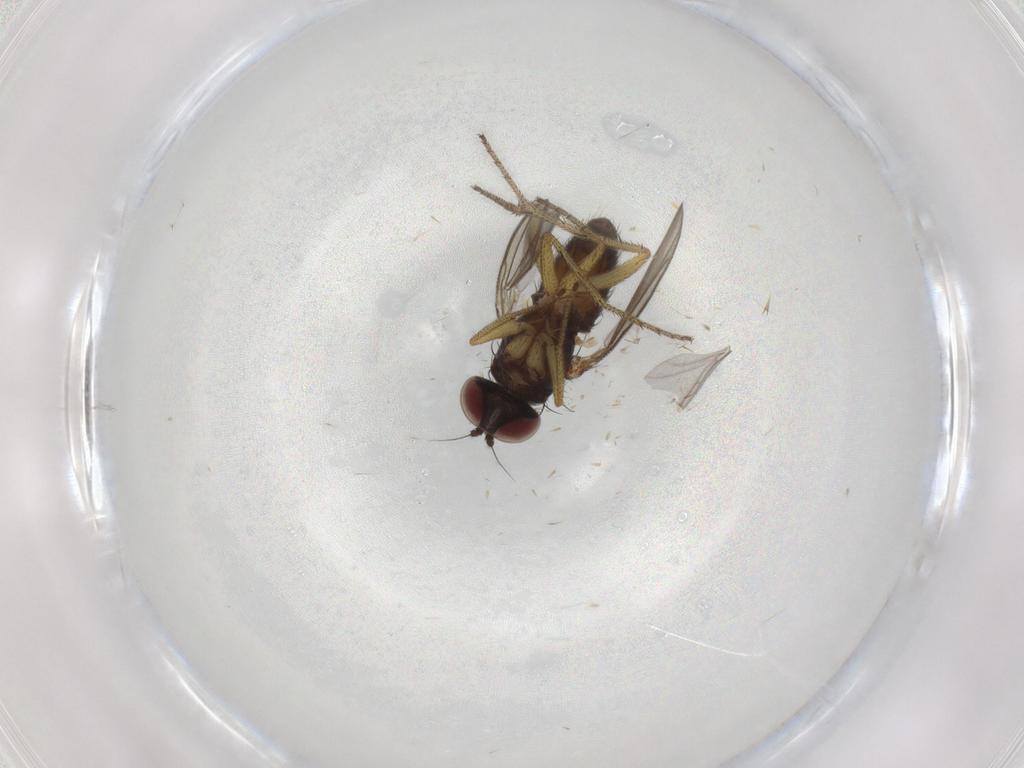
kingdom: Animalia
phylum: Arthropoda
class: Insecta
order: Diptera
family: Sciaridae
